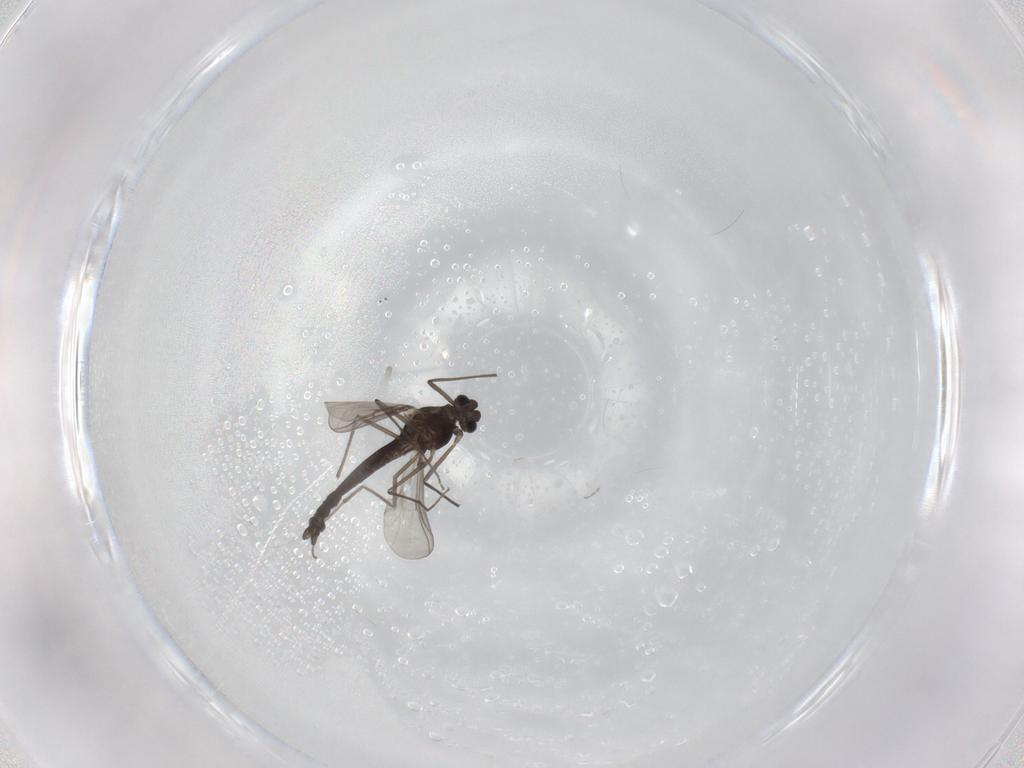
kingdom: Animalia
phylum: Arthropoda
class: Insecta
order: Diptera
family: Chironomidae
